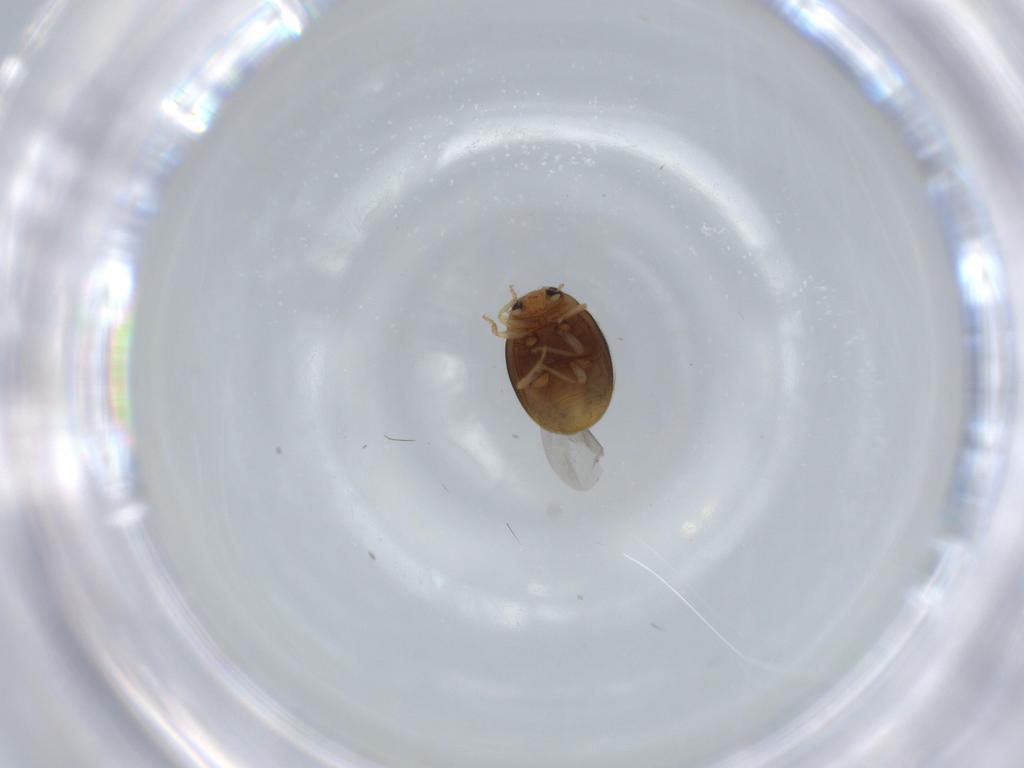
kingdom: Animalia
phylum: Arthropoda
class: Insecta
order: Coleoptera
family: Coccinellidae
